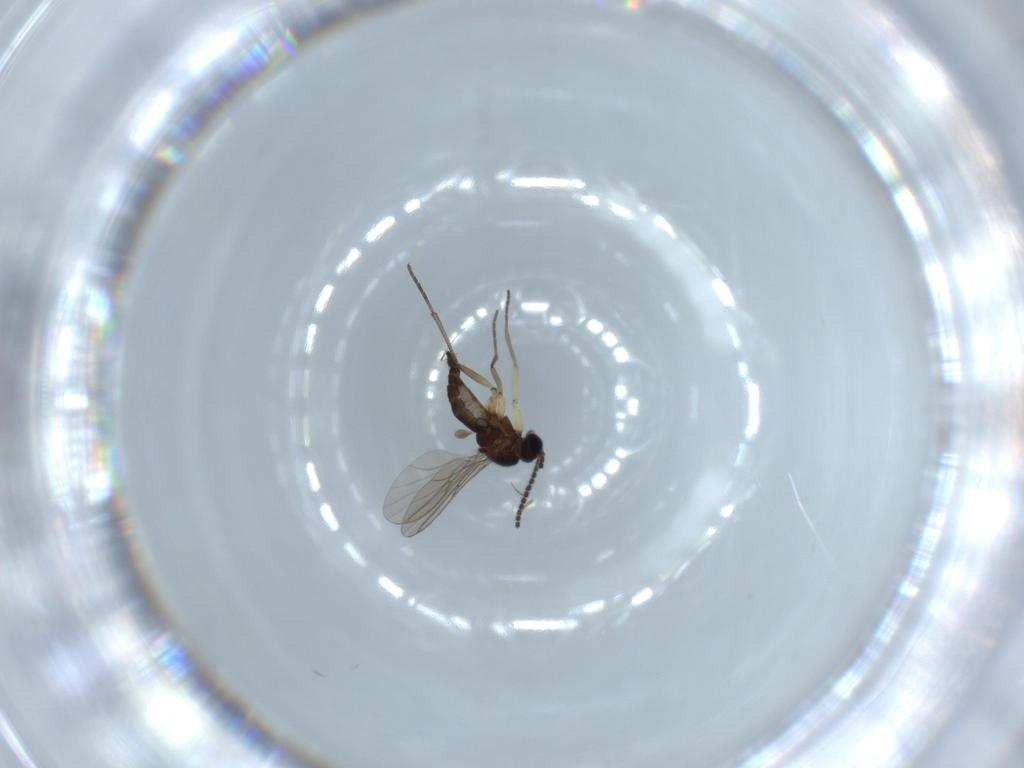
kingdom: Animalia
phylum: Arthropoda
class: Insecta
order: Diptera
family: Sciaridae
